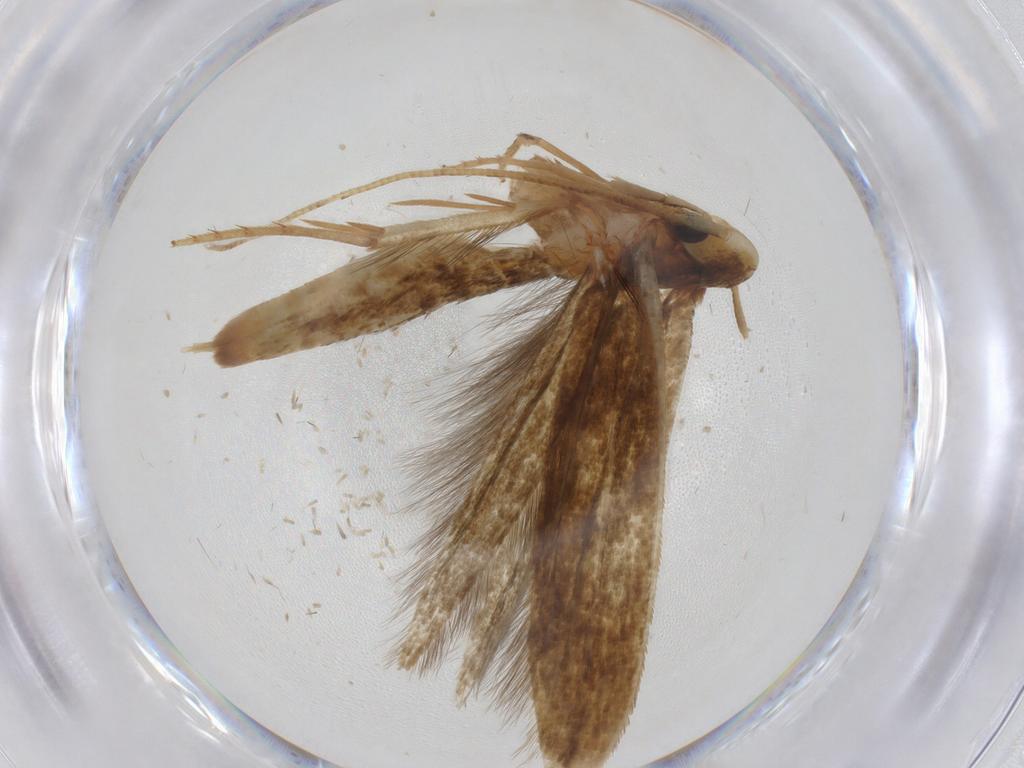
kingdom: Animalia
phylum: Arthropoda
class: Insecta
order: Lepidoptera
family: Tineidae
